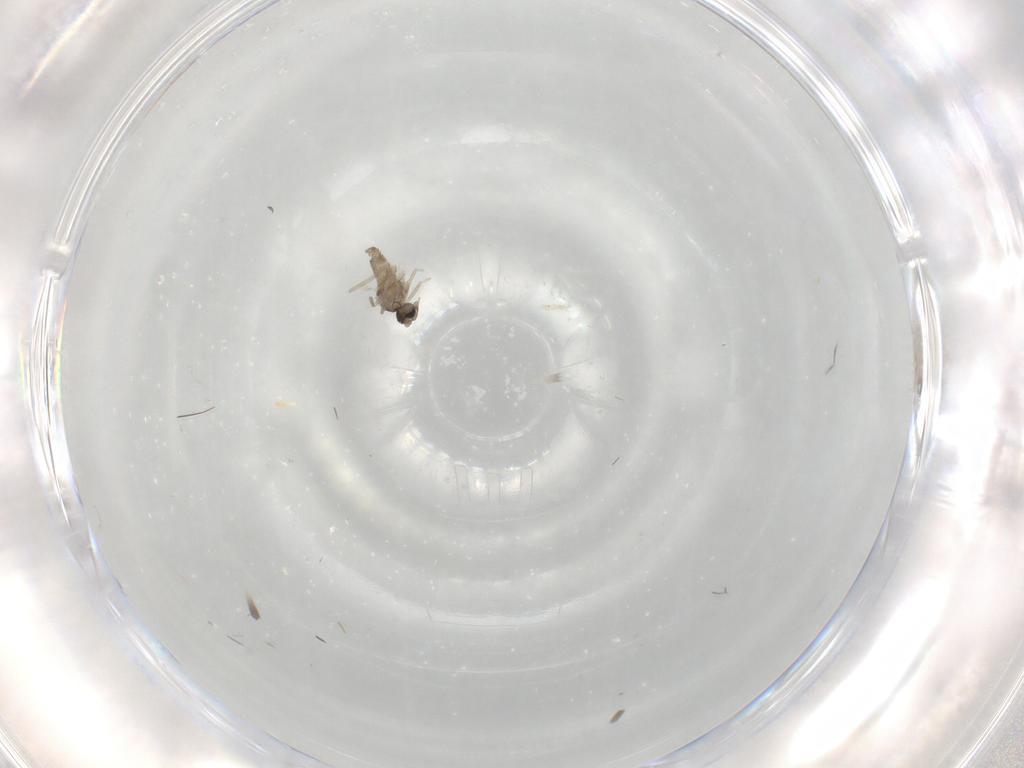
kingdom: Animalia
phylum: Arthropoda
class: Insecta
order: Diptera
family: Cecidomyiidae
